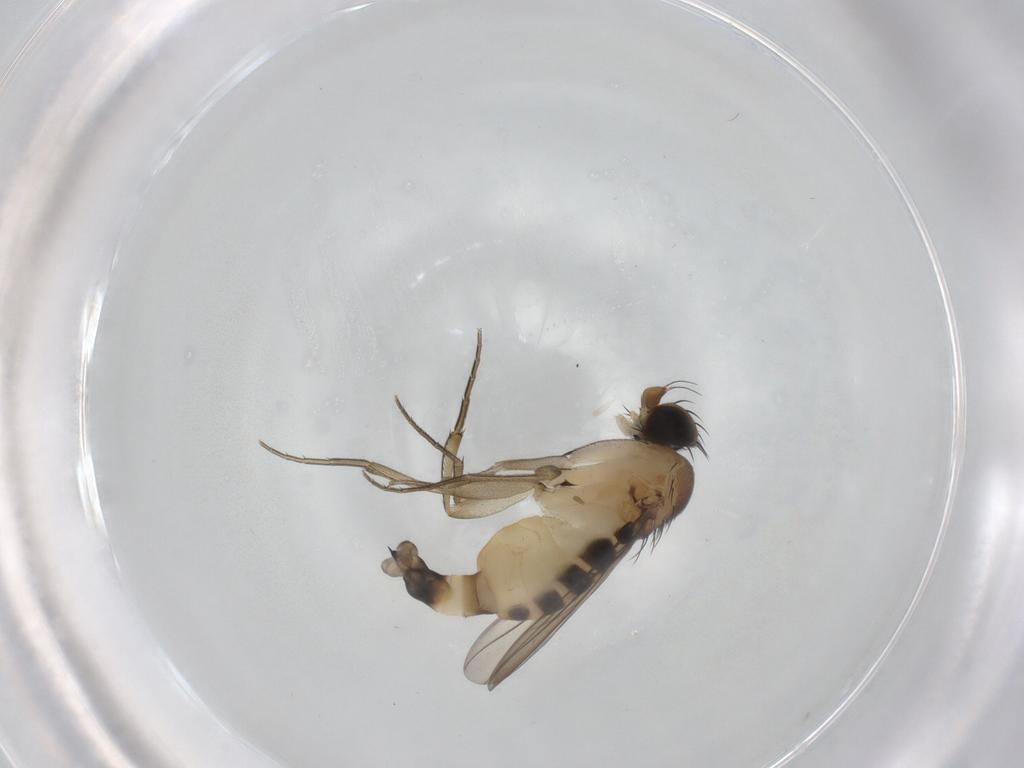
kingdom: Animalia
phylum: Arthropoda
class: Insecta
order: Diptera
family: Phoridae
